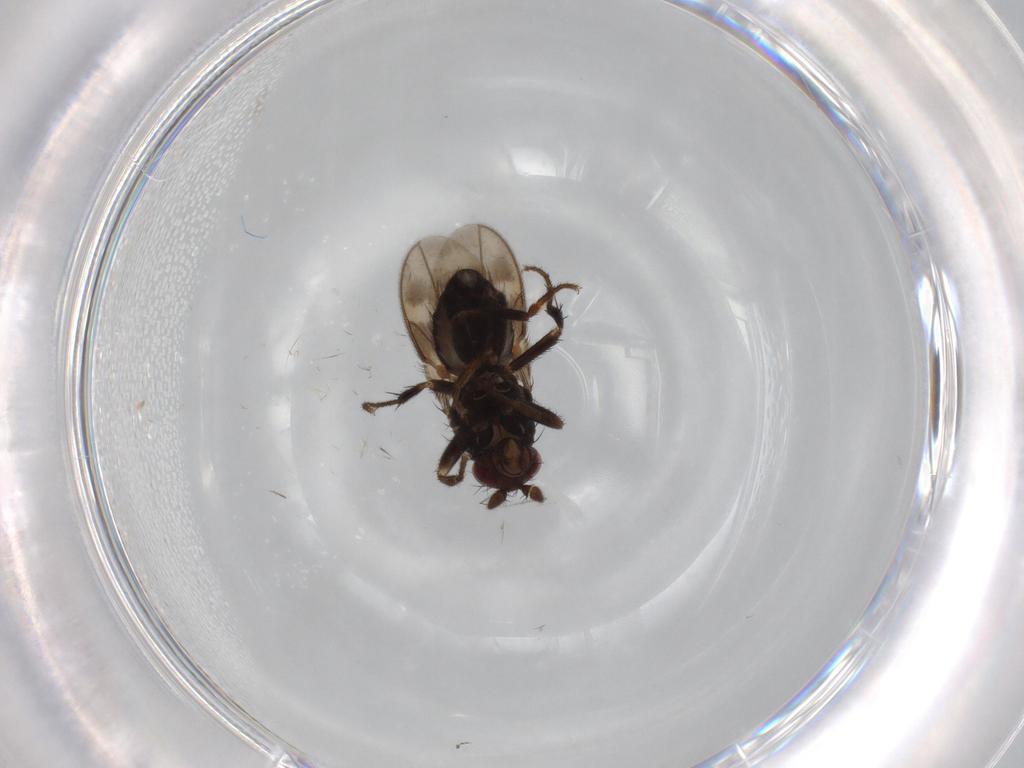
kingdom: Animalia
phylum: Arthropoda
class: Insecta
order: Diptera
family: Sphaeroceridae
